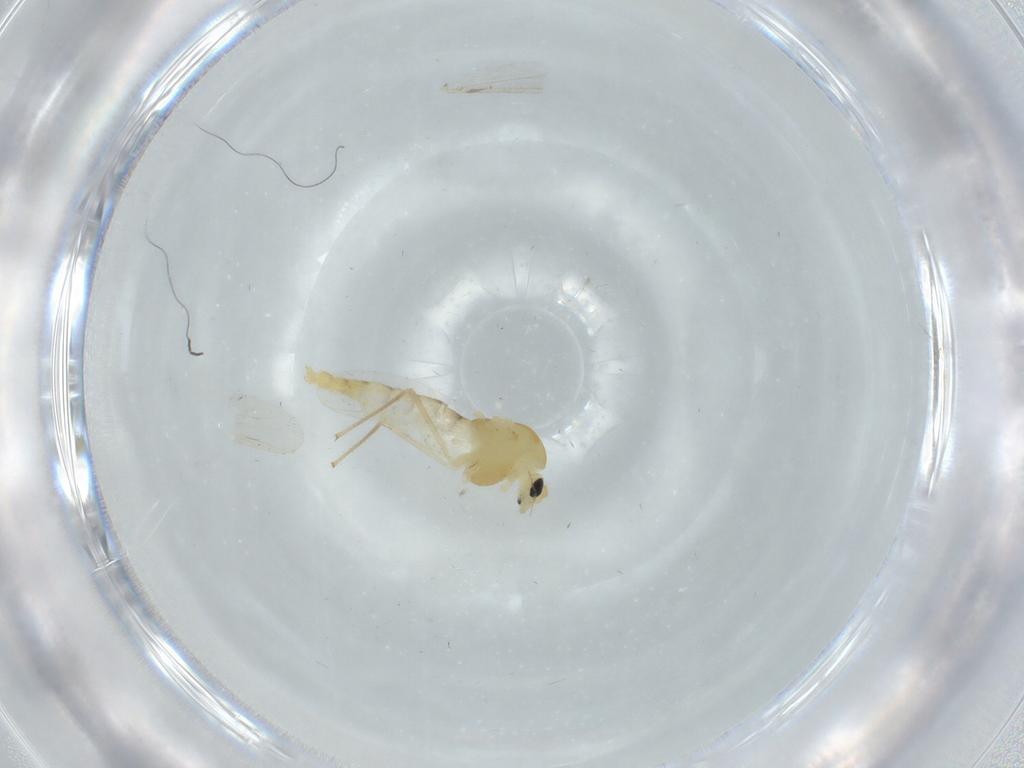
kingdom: Animalia
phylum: Arthropoda
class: Insecta
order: Diptera
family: Chironomidae
